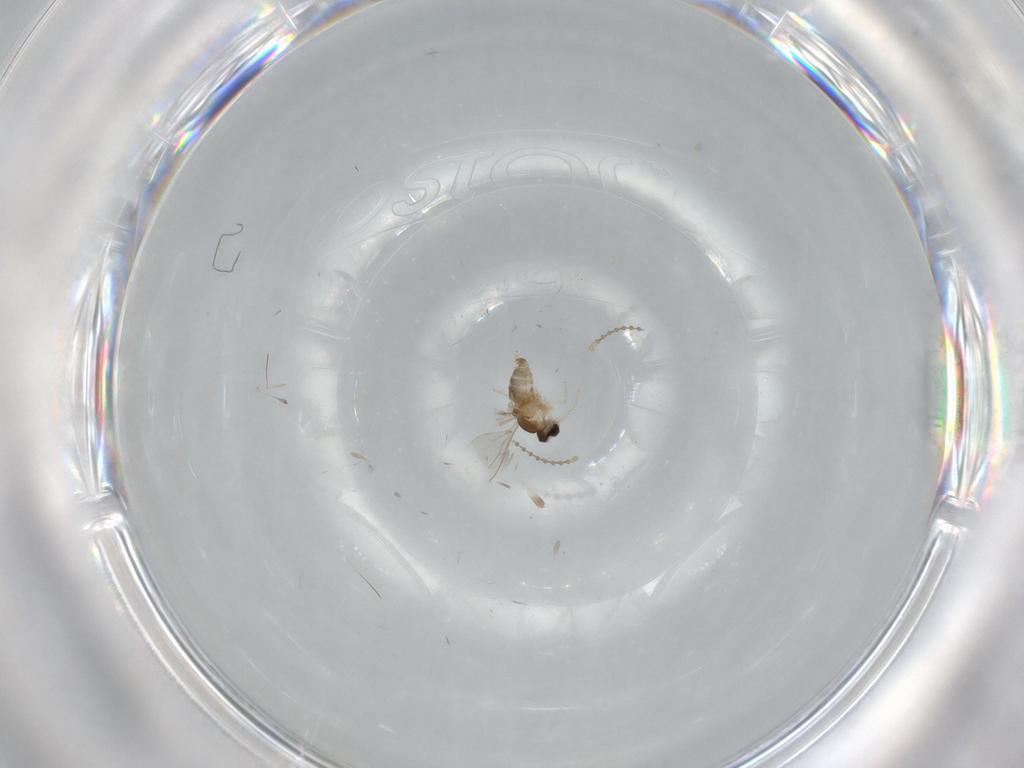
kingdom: Animalia
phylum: Arthropoda
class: Insecta
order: Diptera
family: Cecidomyiidae
